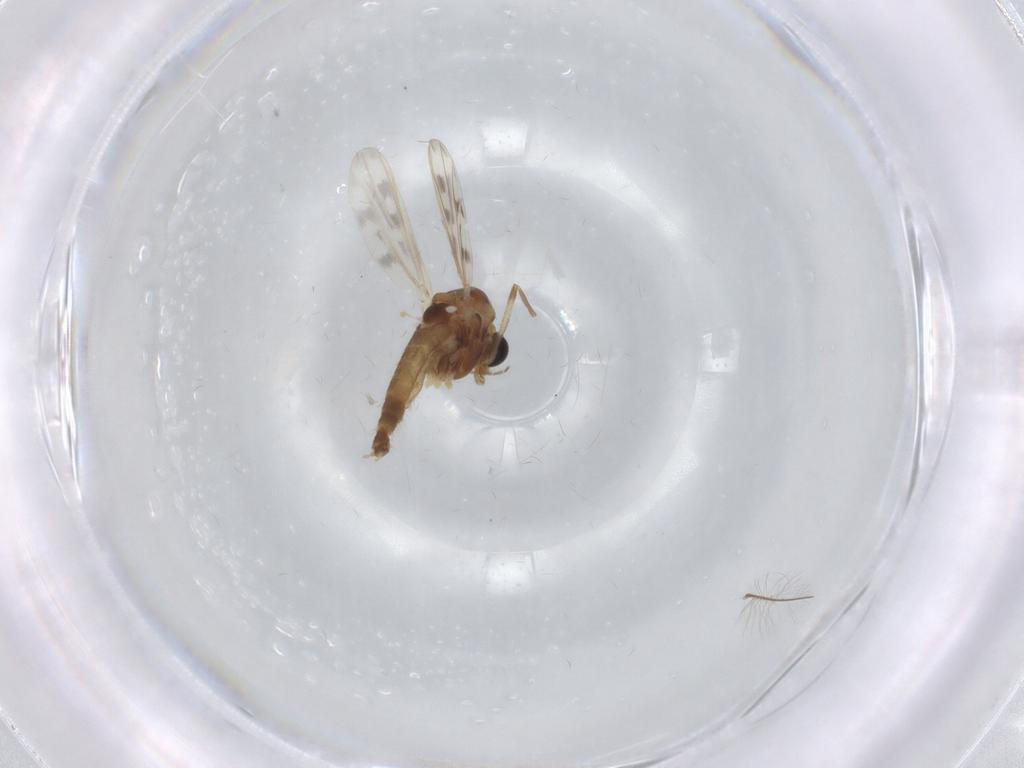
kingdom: Animalia
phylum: Arthropoda
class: Insecta
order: Diptera
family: Chironomidae
